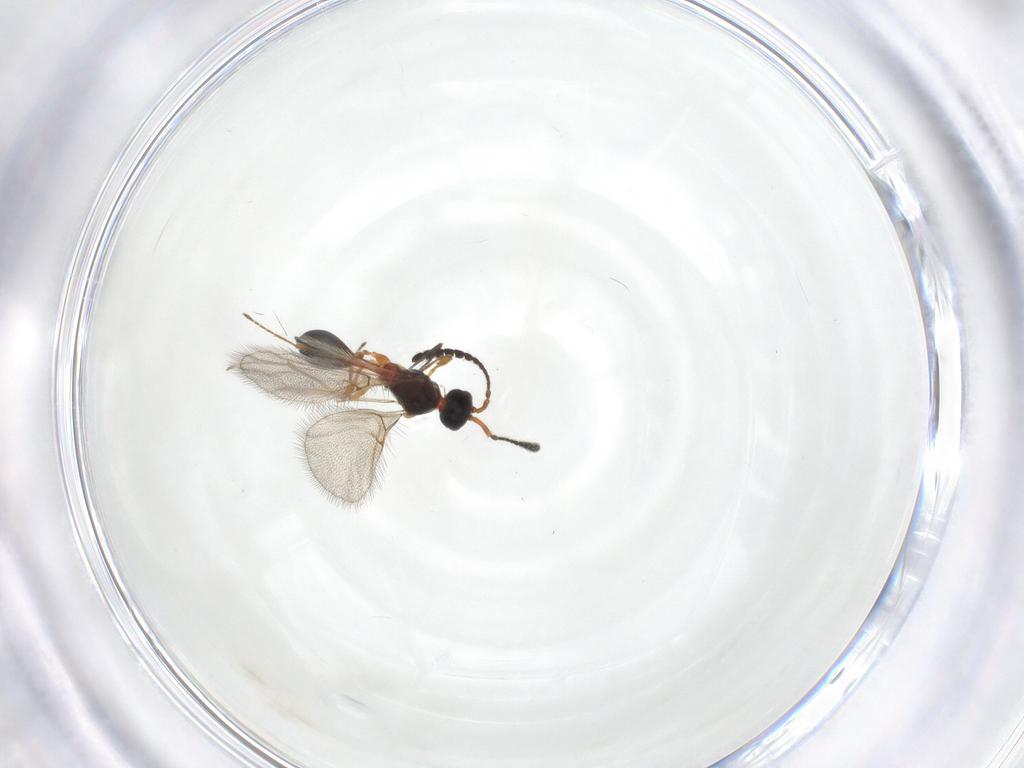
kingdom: Animalia
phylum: Arthropoda
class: Insecta
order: Hymenoptera
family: Diapriidae
